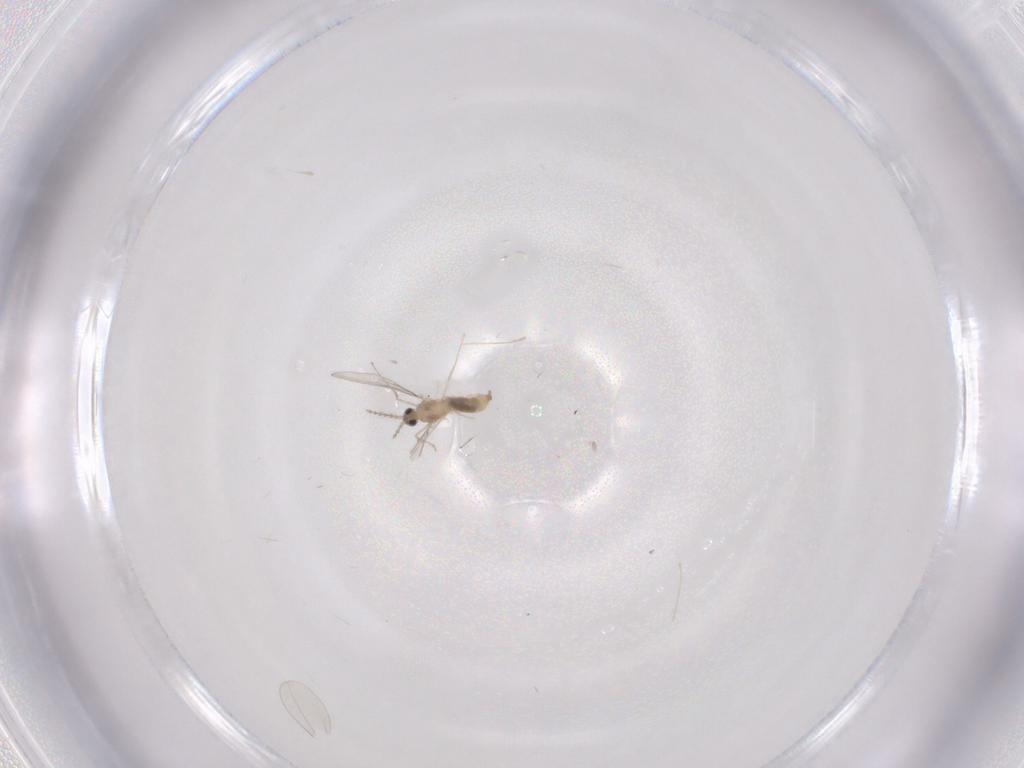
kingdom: Animalia
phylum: Arthropoda
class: Insecta
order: Diptera
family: Cecidomyiidae
